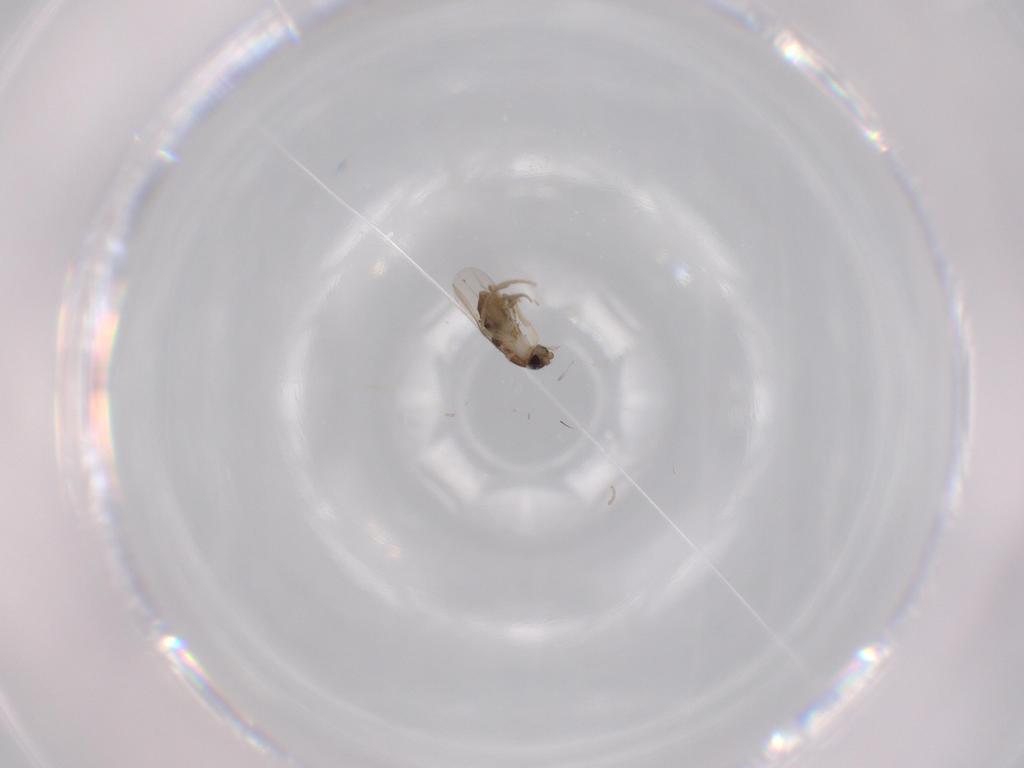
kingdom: Animalia
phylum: Arthropoda
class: Insecta
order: Diptera
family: Phoridae
